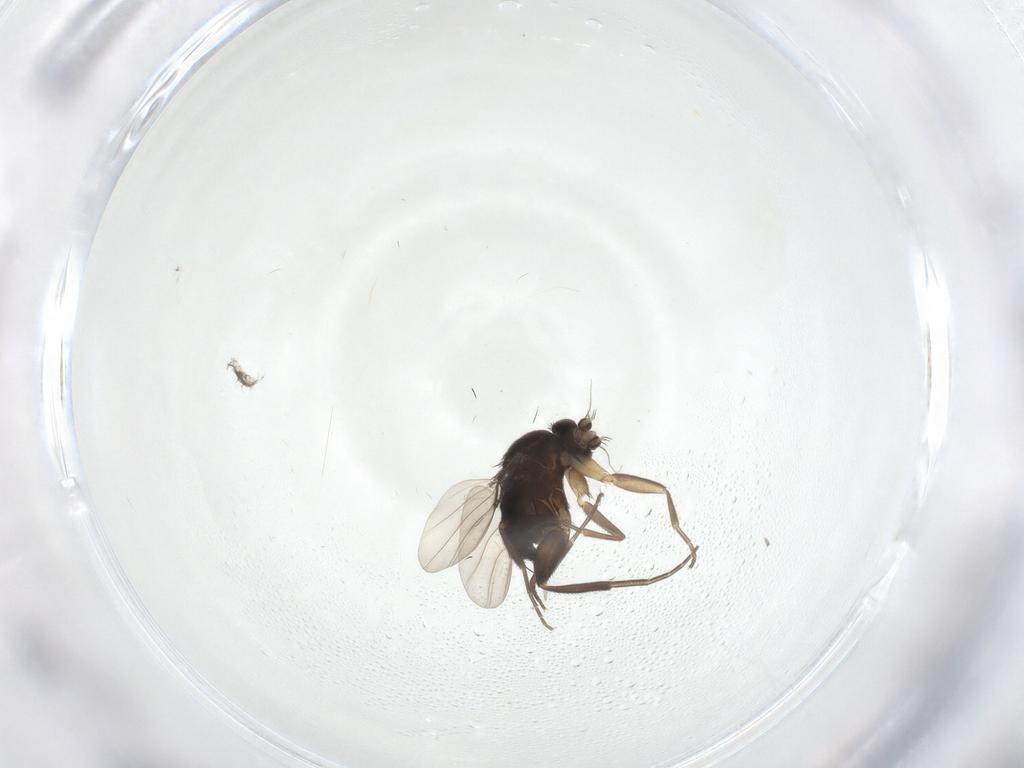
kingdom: Animalia
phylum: Arthropoda
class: Insecta
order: Diptera
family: Phoridae
